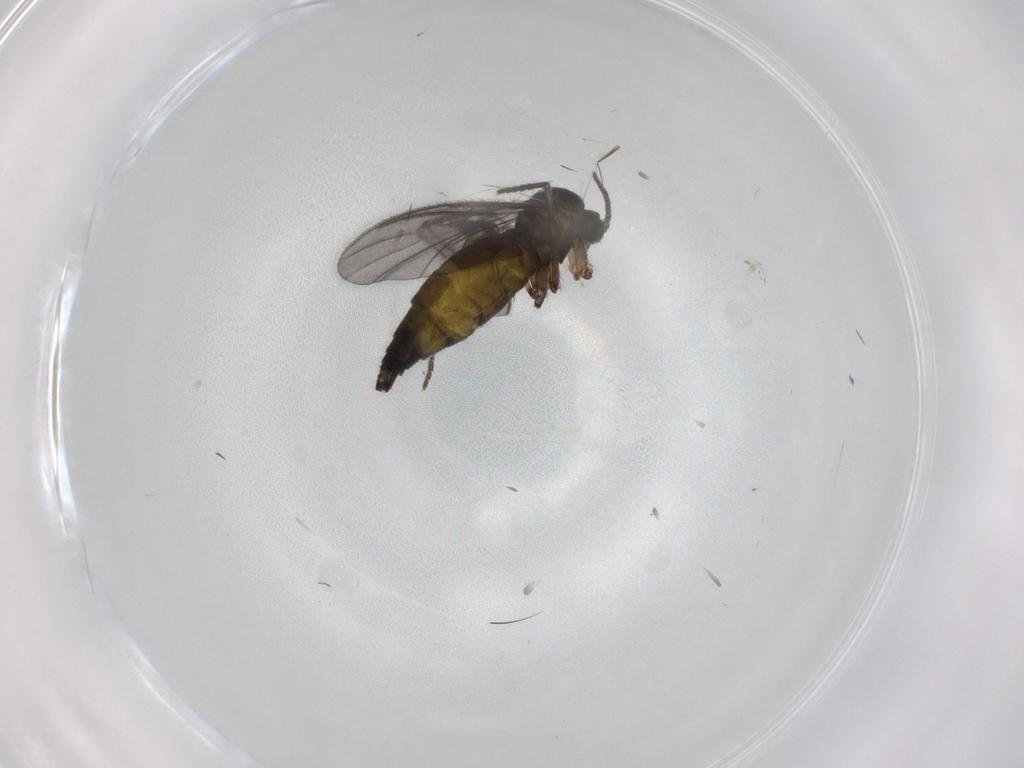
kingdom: Animalia
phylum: Arthropoda
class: Insecta
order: Diptera
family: Sciaridae
